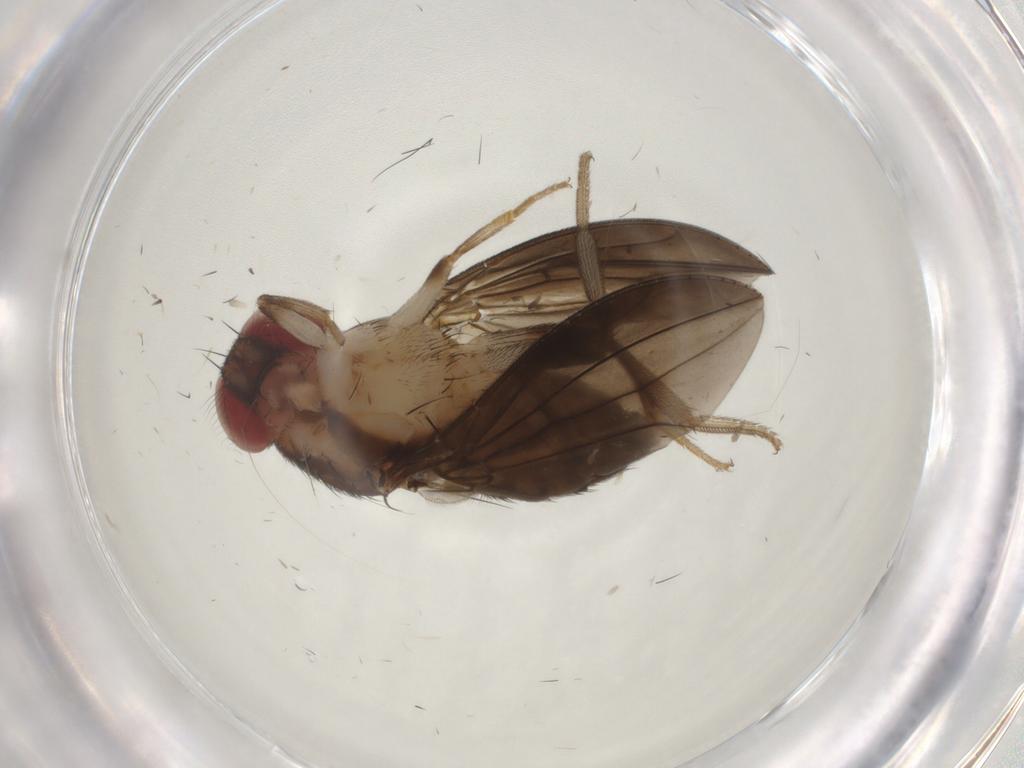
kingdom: Animalia
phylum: Arthropoda
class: Insecta
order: Diptera
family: Drosophilidae
